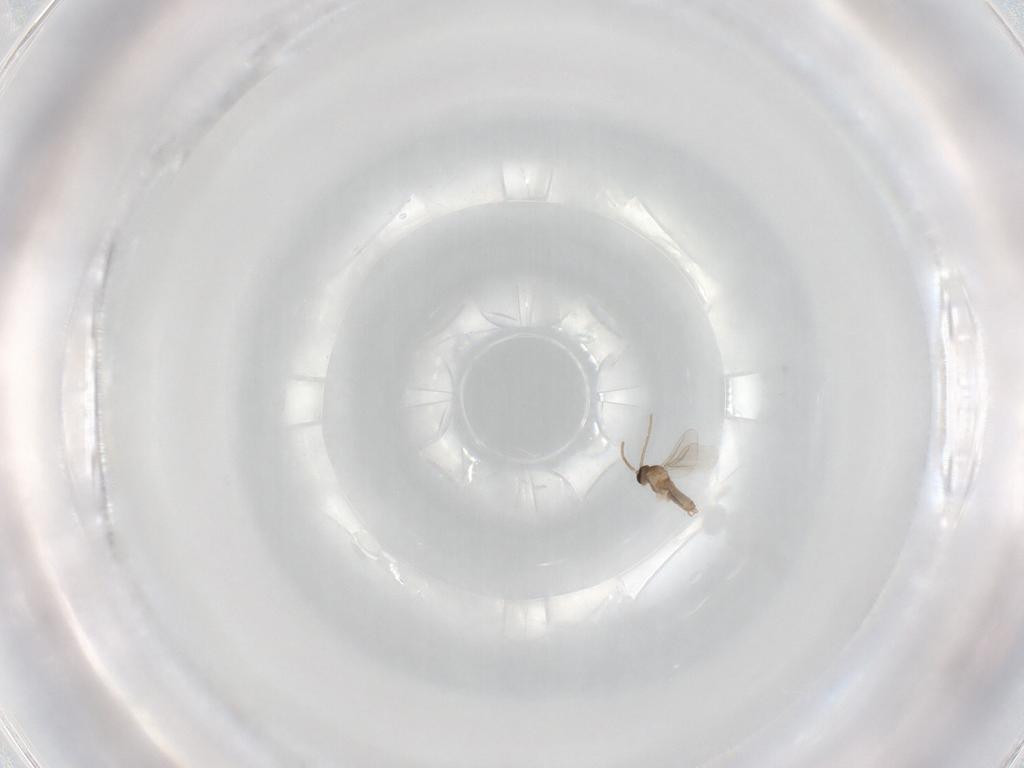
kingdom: Animalia
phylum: Arthropoda
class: Insecta
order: Diptera
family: Cecidomyiidae
